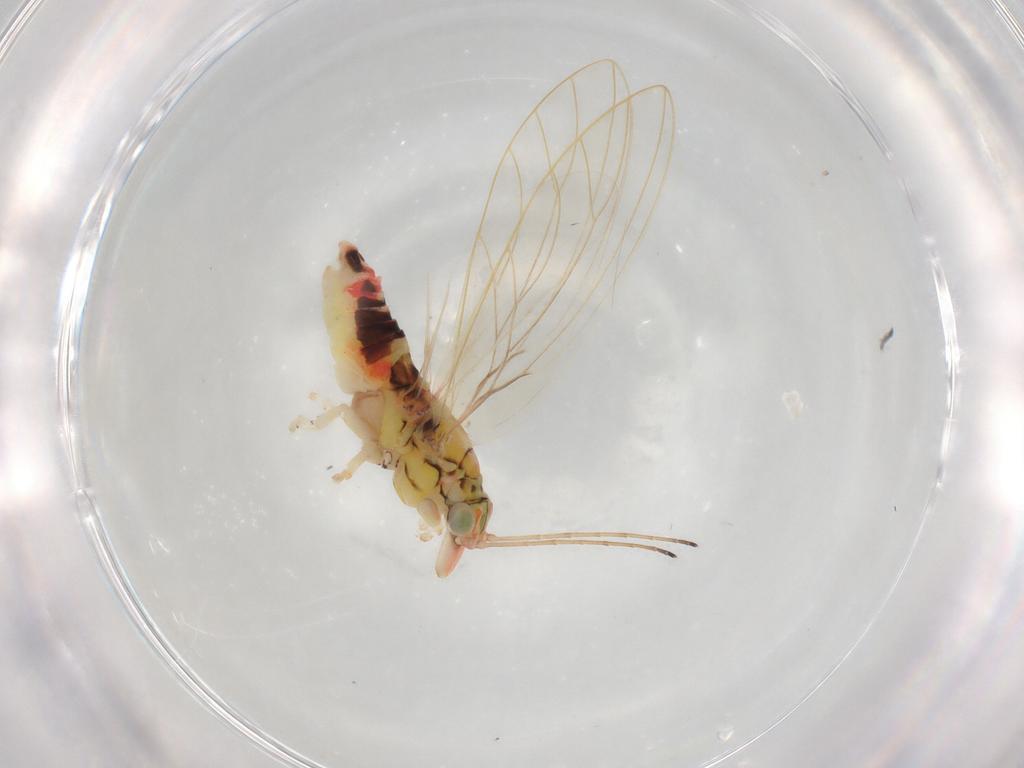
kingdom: Animalia
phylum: Arthropoda
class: Insecta
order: Hemiptera
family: Aphalaridae
